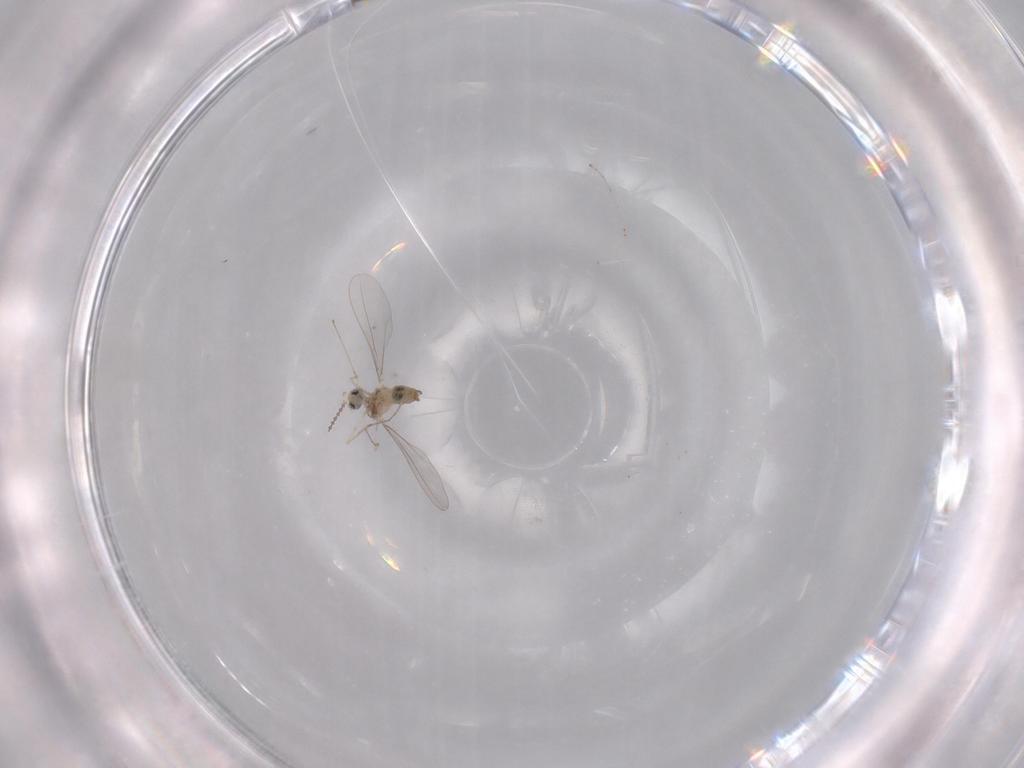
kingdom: Animalia
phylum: Arthropoda
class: Insecta
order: Diptera
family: Cecidomyiidae
